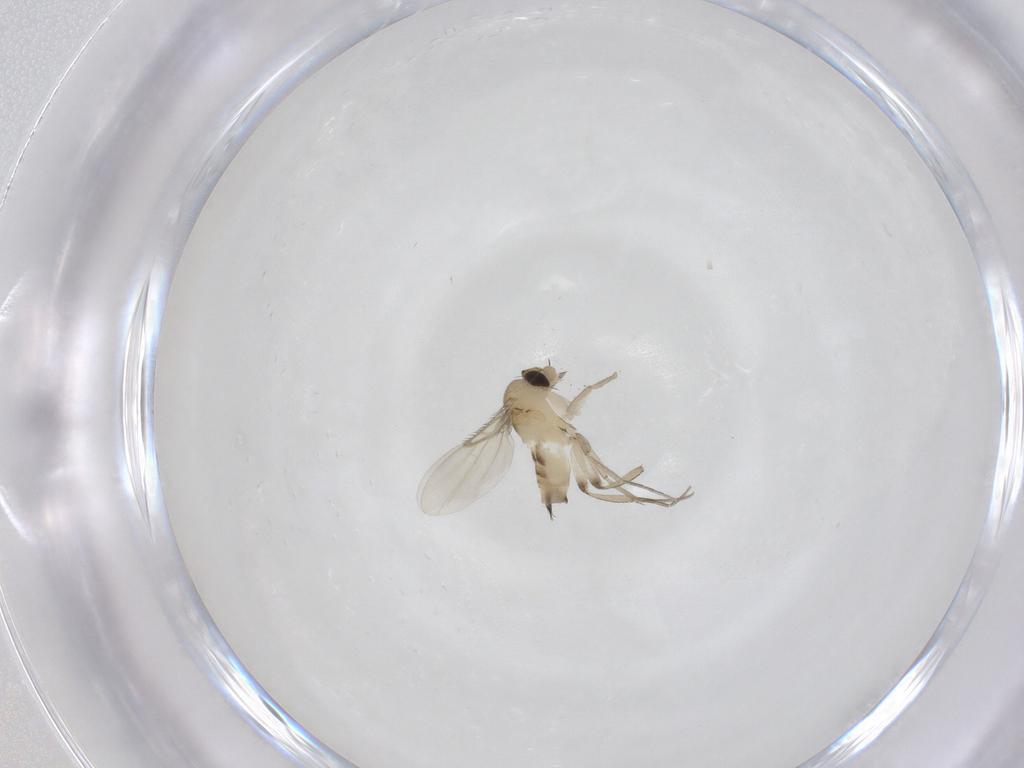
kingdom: Animalia
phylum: Arthropoda
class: Insecta
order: Diptera
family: Phoridae
